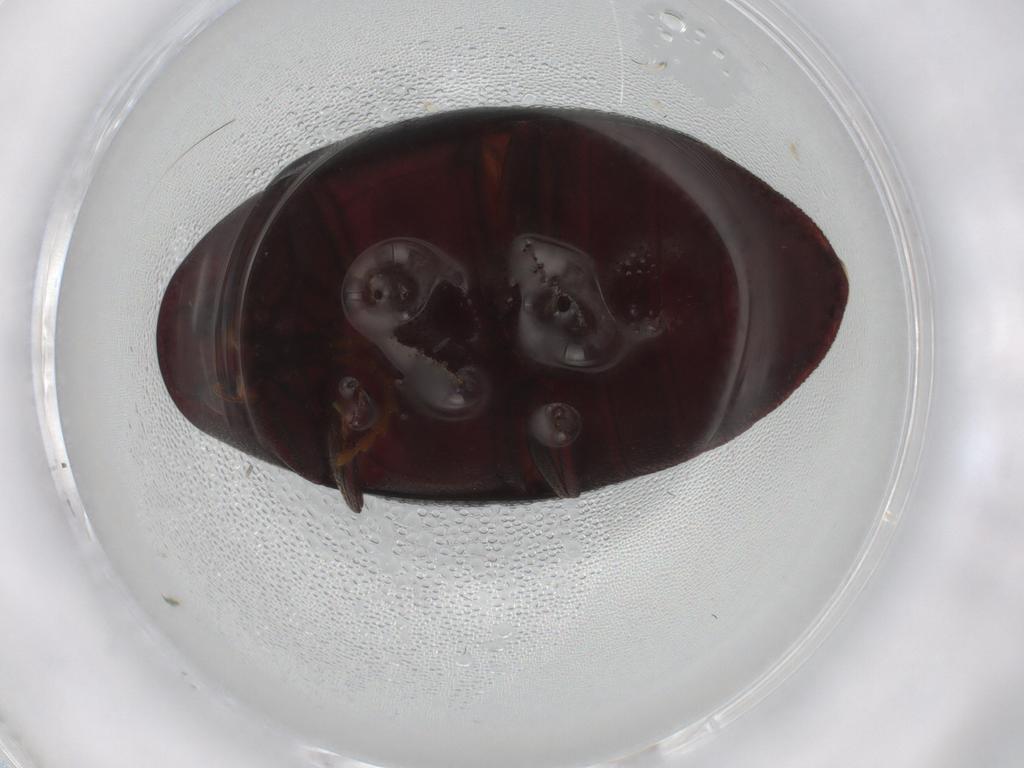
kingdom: Animalia
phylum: Arthropoda
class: Insecta
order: Coleoptera
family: Chelonariidae
